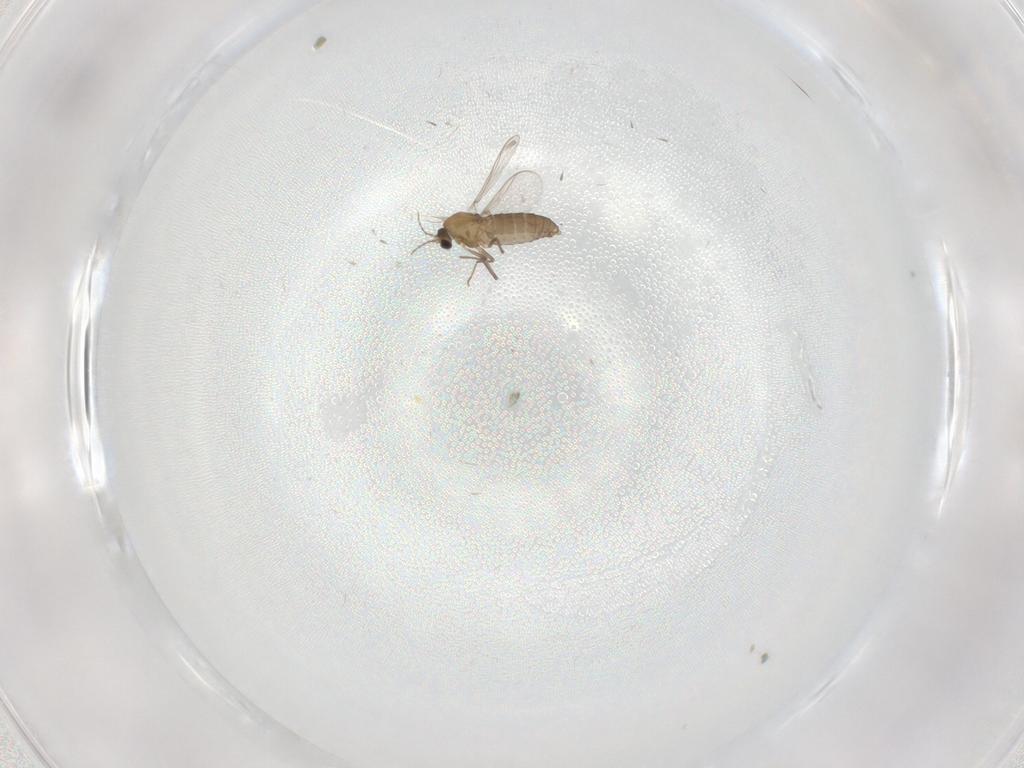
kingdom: Animalia
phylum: Arthropoda
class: Insecta
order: Diptera
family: Chironomidae
